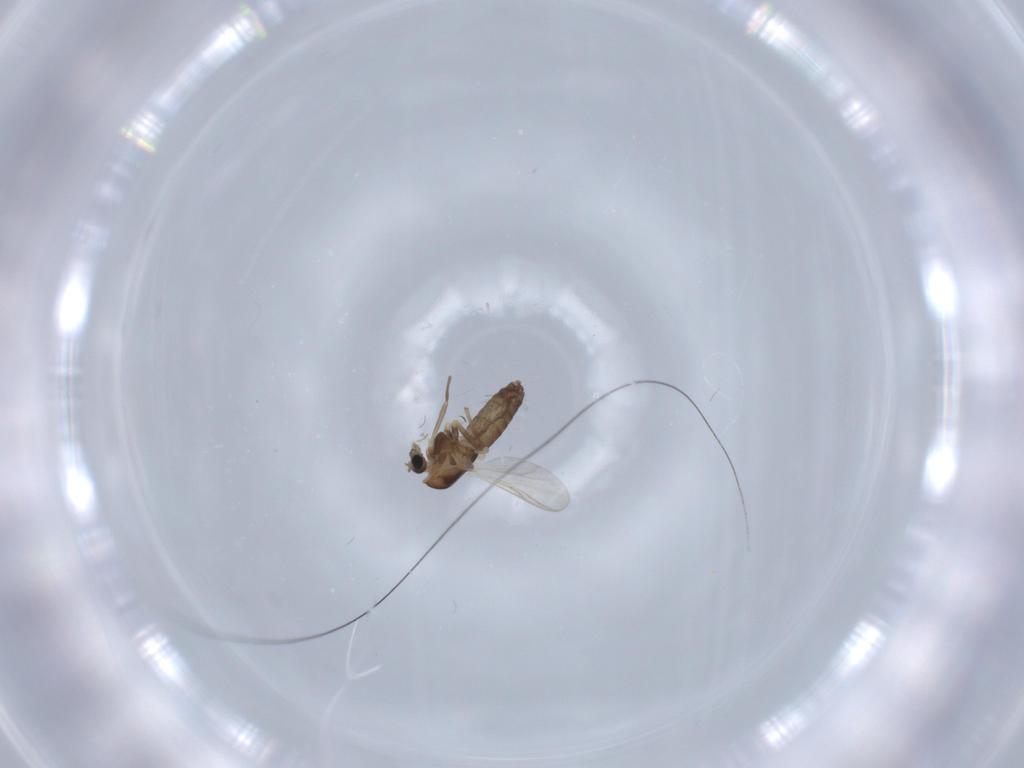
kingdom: Animalia
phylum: Arthropoda
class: Insecta
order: Diptera
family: Chironomidae
